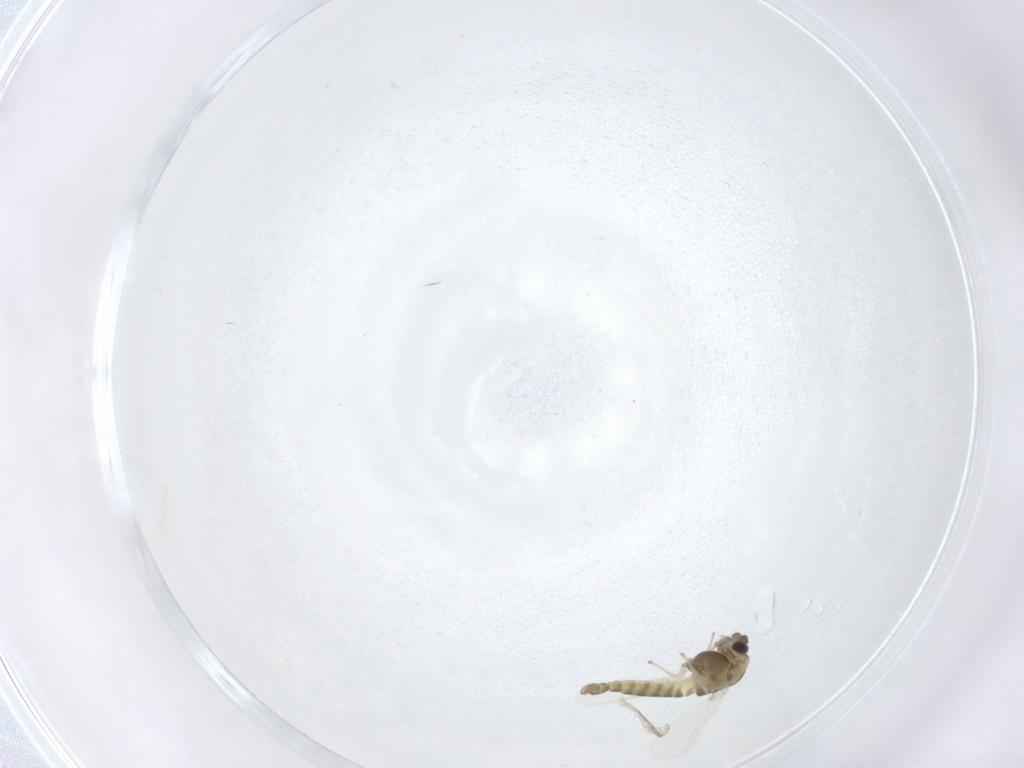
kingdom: Animalia
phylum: Arthropoda
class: Insecta
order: Diptera
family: Chironomidae
